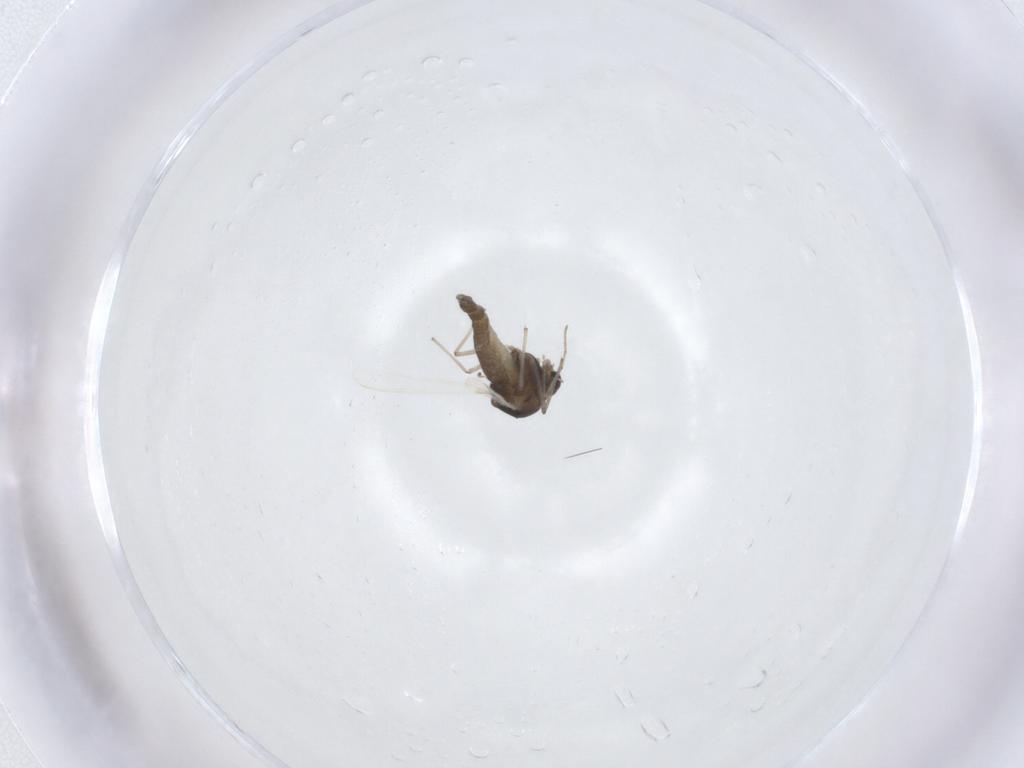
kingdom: Animalia
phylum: Arthropoda
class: Insecta
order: Diptera
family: Chironomidae
